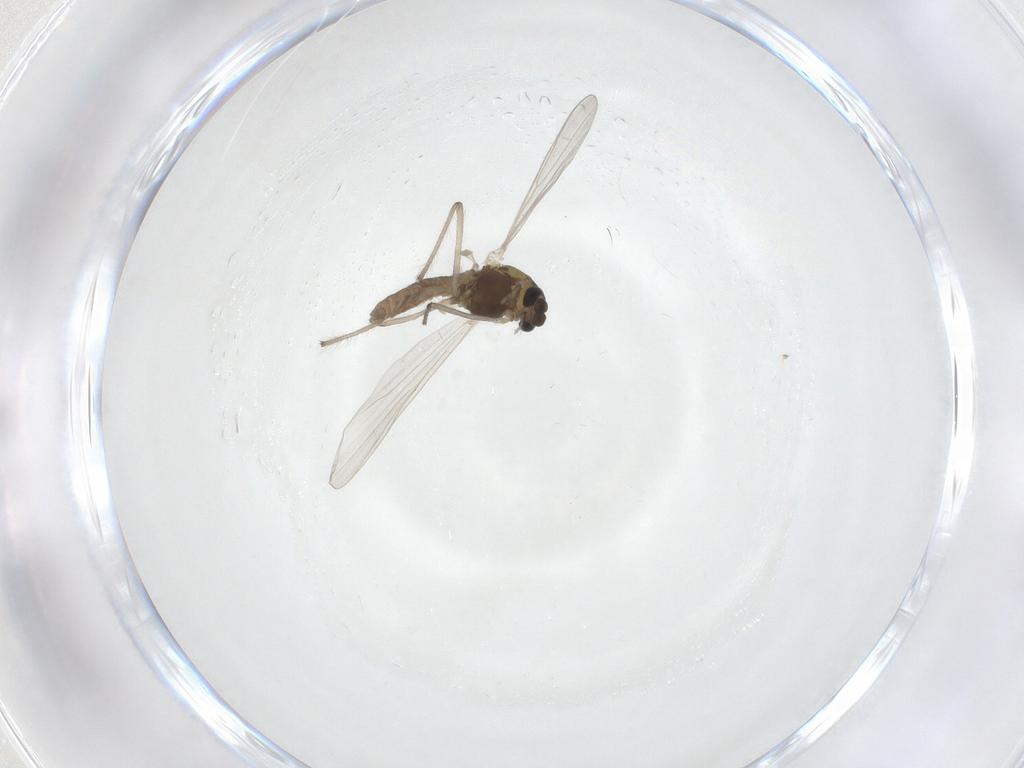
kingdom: Animalia
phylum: Arthropoda
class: Insecta
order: Diptera
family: Chironomidae
